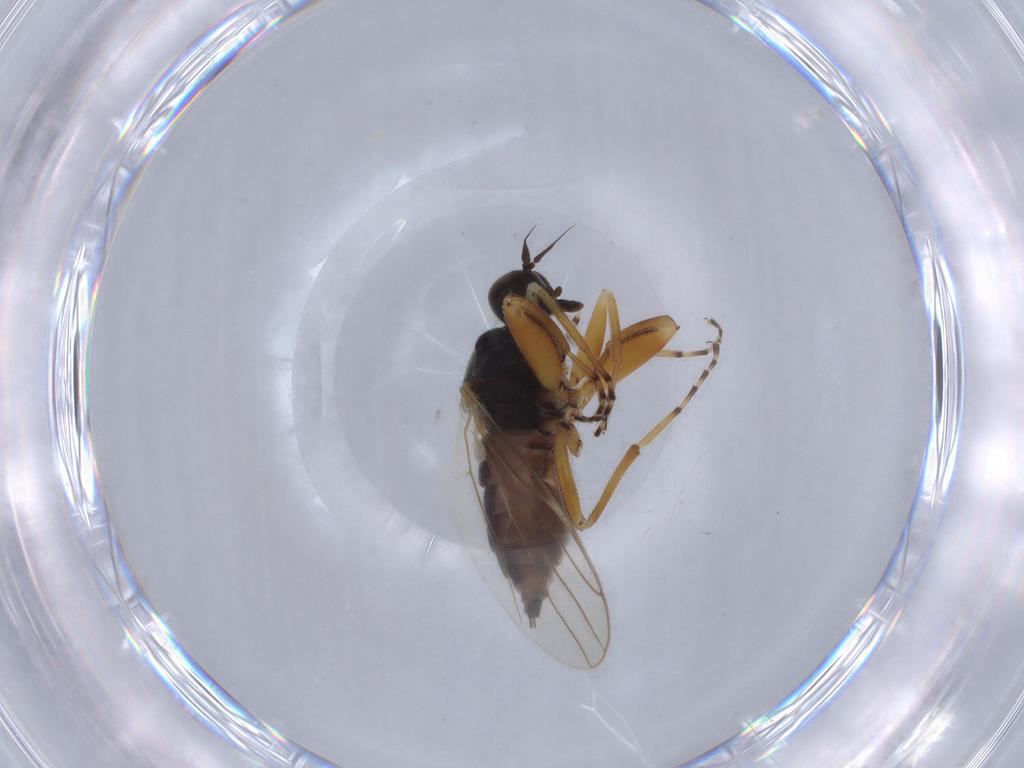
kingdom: Animalia
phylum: Arthropoda
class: Insecta
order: Diptera
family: Hybotidae
